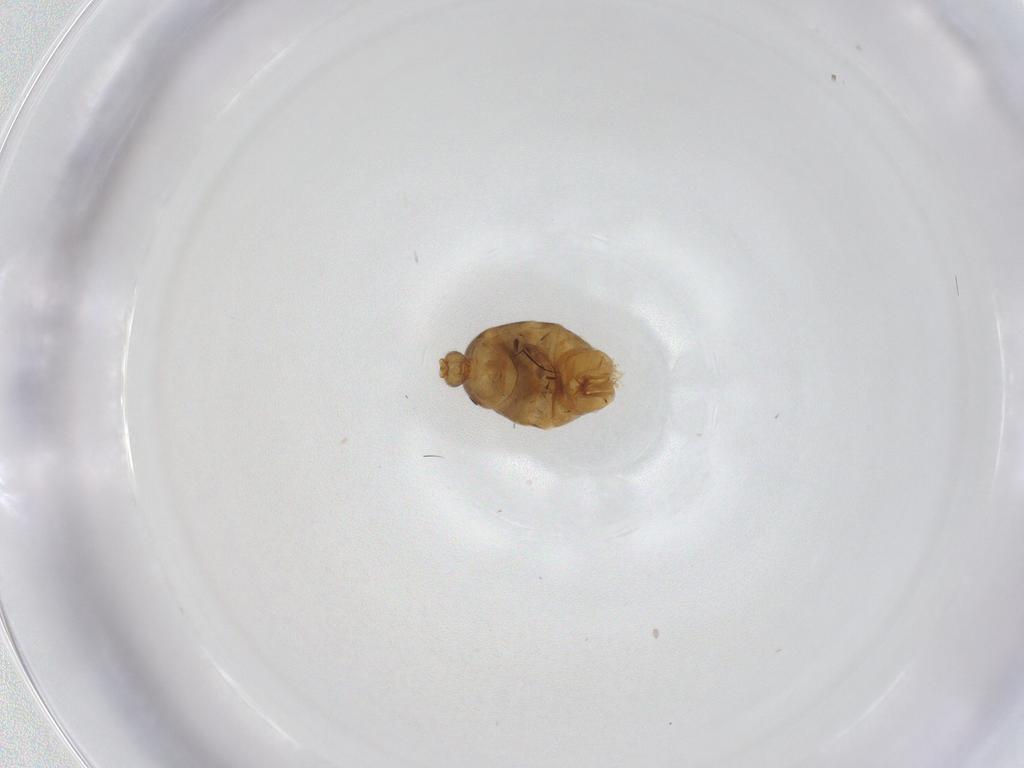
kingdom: Animalia
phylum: Arthropoda
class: Insecta
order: Hymenoptera
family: Formicidae
